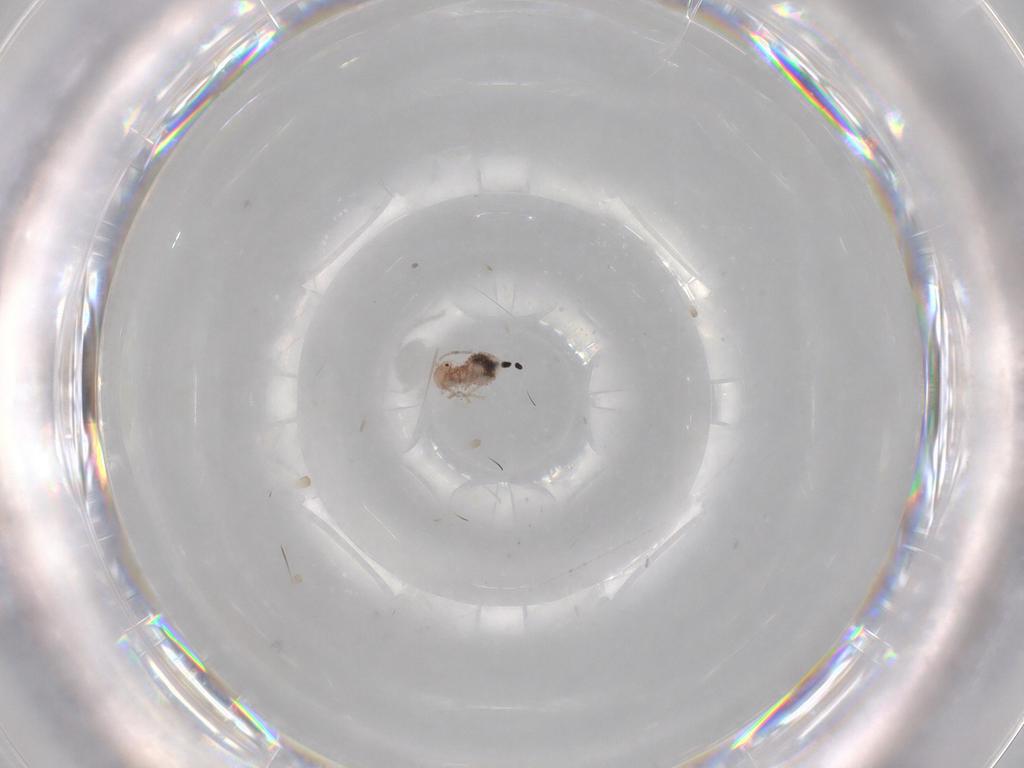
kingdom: Animalia
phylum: Arthropoda
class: Insecta
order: Psocodea
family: Ectopsocidae
